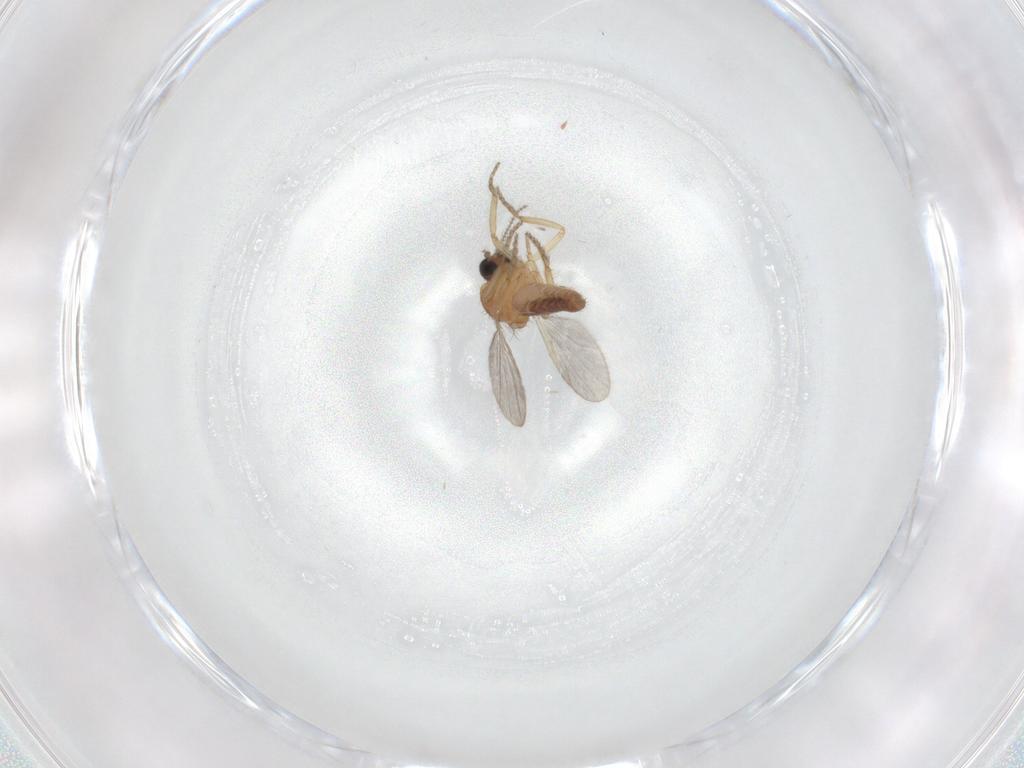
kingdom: Animalia
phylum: Arthropoda
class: Insecta
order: Diptera
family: Ceratopogonidae
